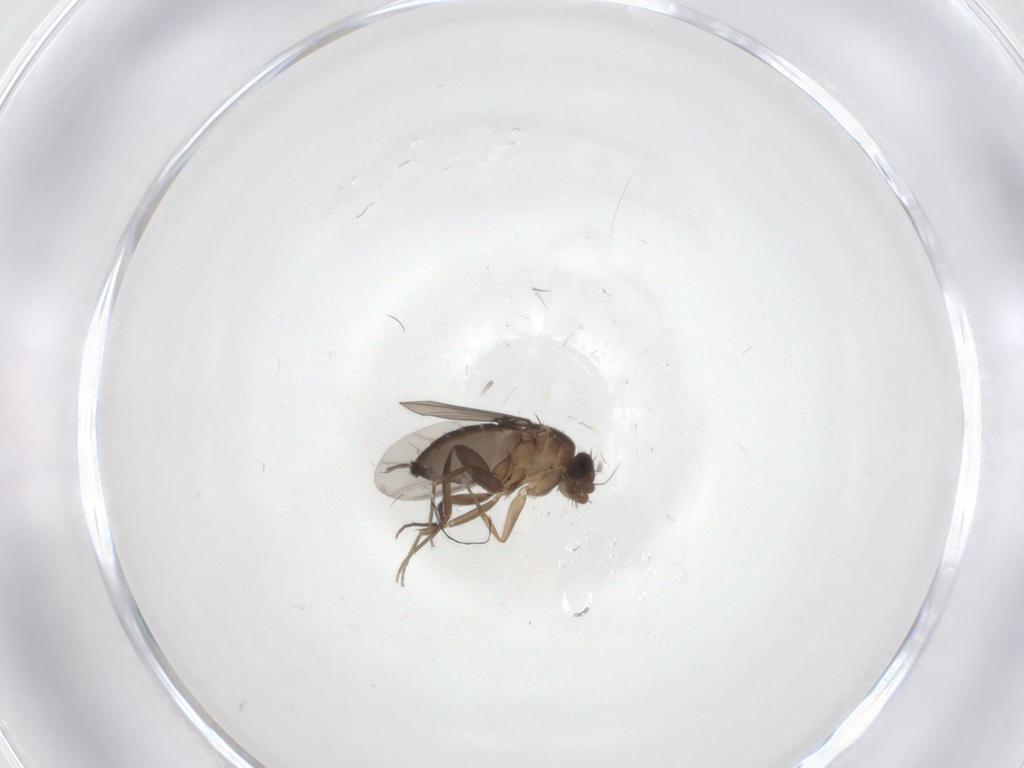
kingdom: Animalia
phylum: Arthropoda
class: Insecta
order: Diptera
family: Phoridae
